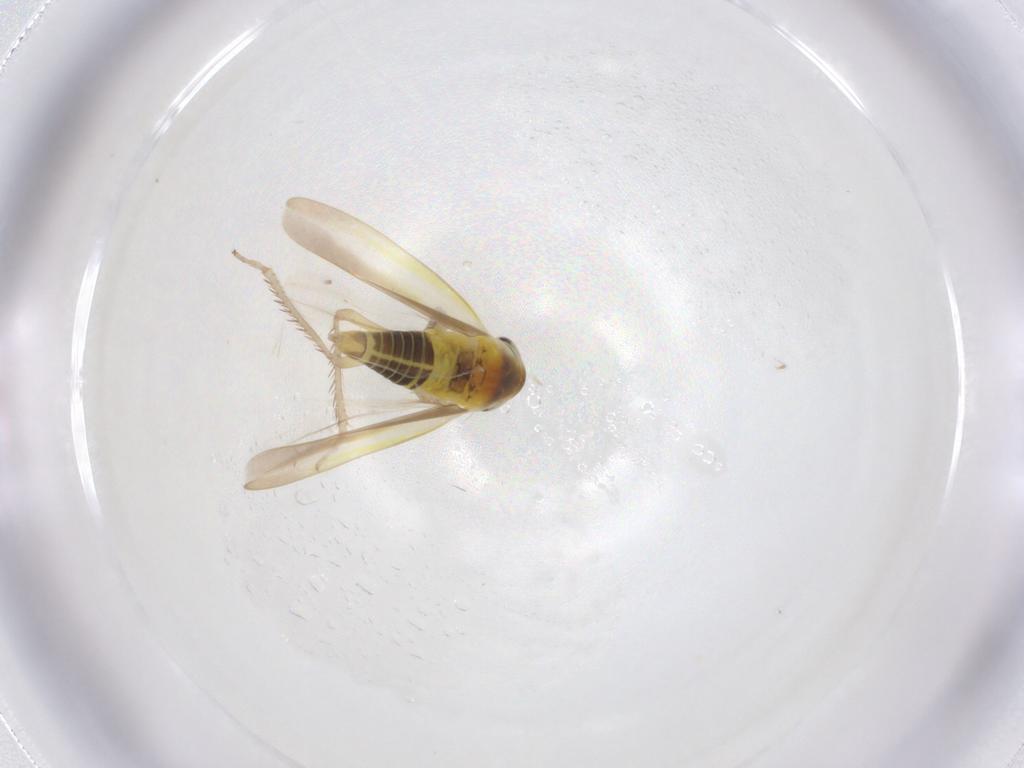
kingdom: Animalia
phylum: Arthropoda
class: Insecta
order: Hemiptera
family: Cicadellidae
